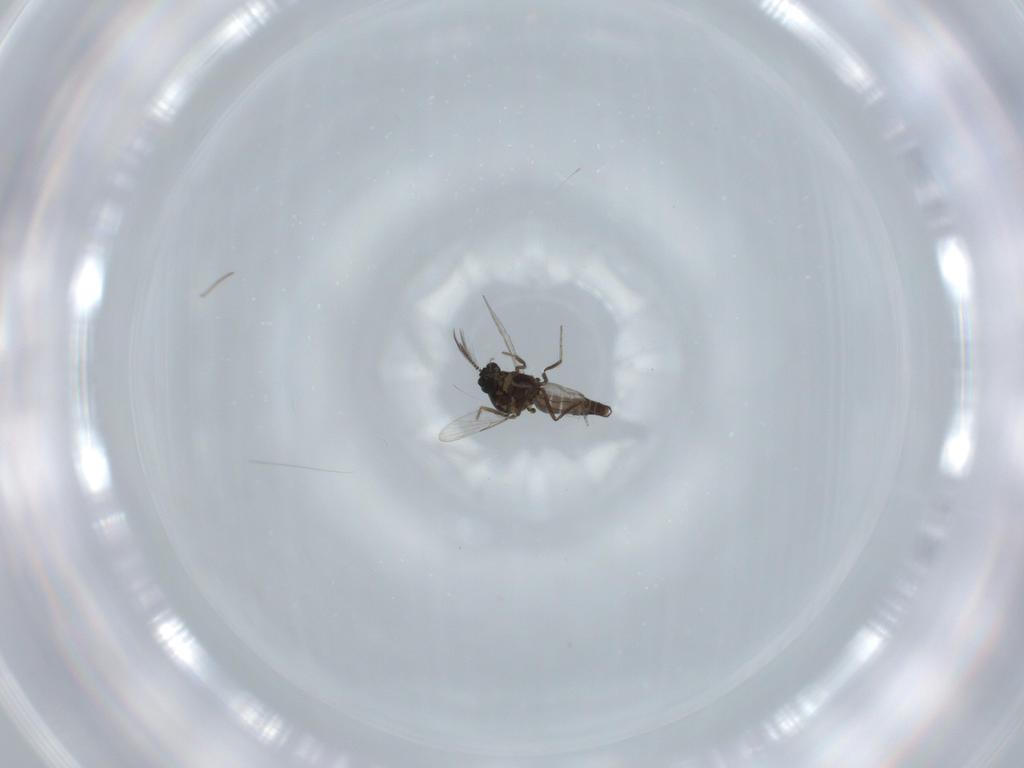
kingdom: Animalia
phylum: Arthropoda
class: Insecta
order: Diptera
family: Ceratopogonidae
